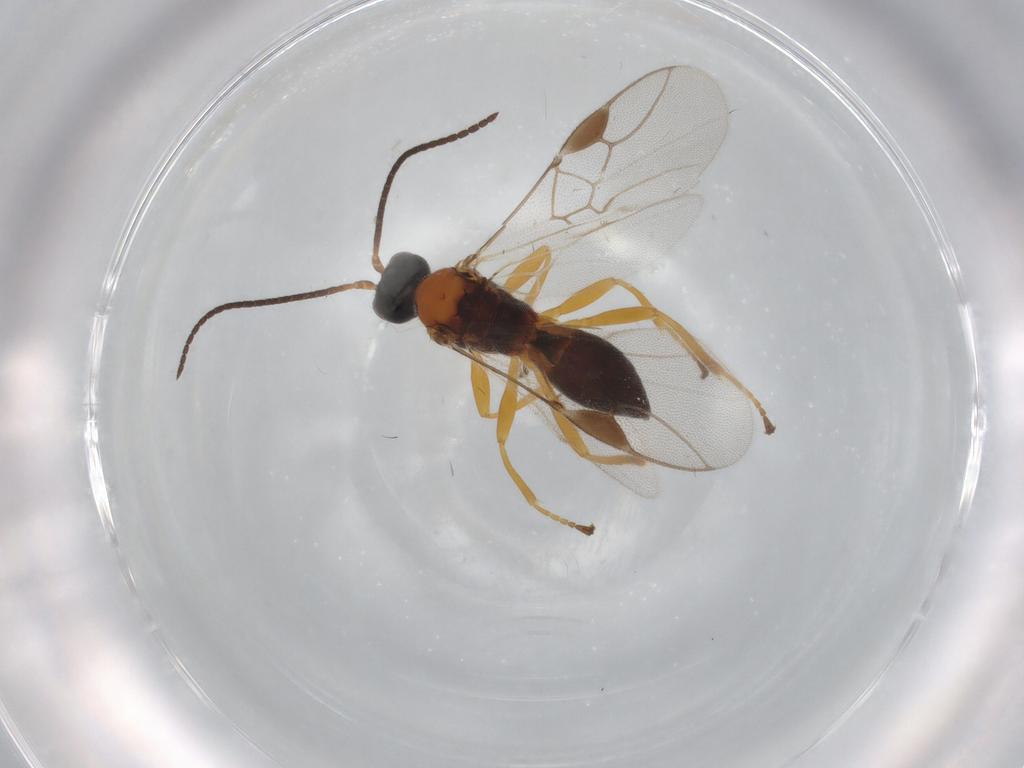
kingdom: Animalia
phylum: Arthropoda
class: Insecta
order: Hymenoptera
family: Braconidae
